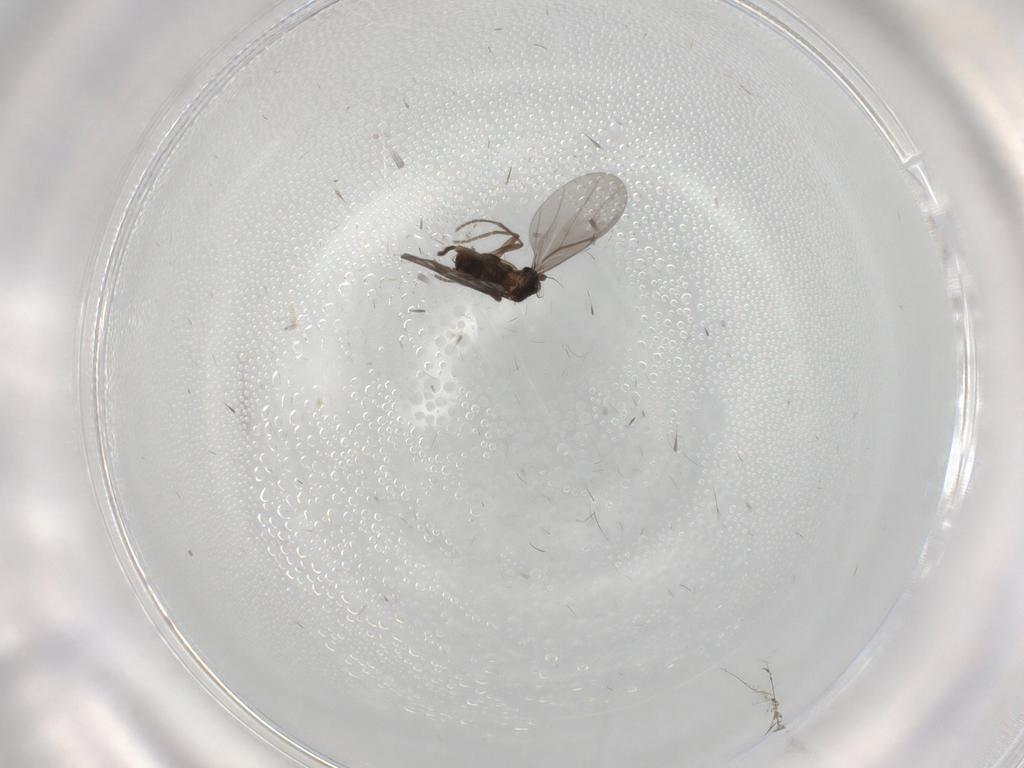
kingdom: Animalia
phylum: Arthropoda
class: Insecta
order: Diptera
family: Phoridae
